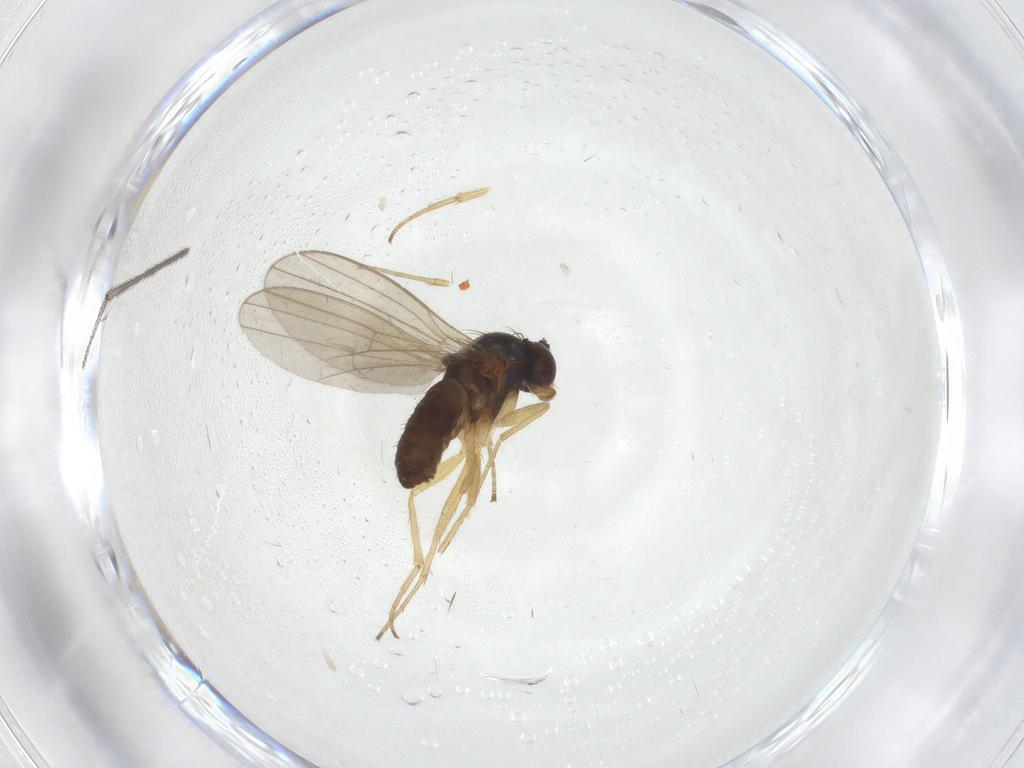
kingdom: Animalia
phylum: Arthropoda
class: Insecta
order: Diptera
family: Dolichopodidae
